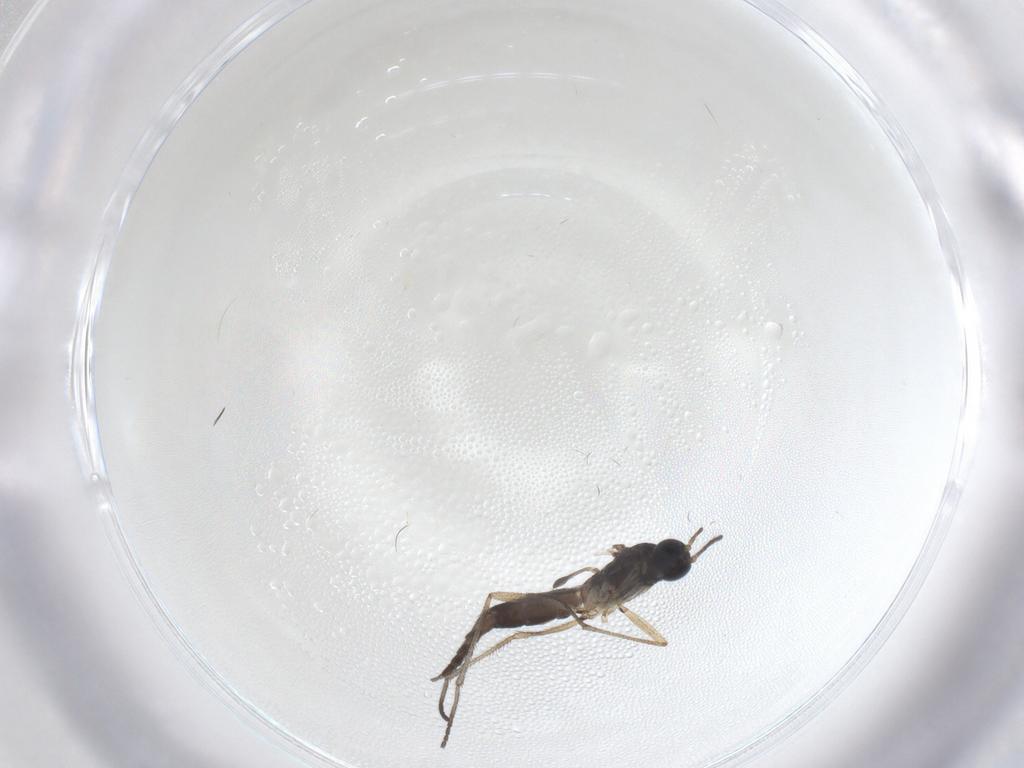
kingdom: Animalia
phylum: Arthropoda
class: Insecta
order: Diptera
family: Sciaridae
